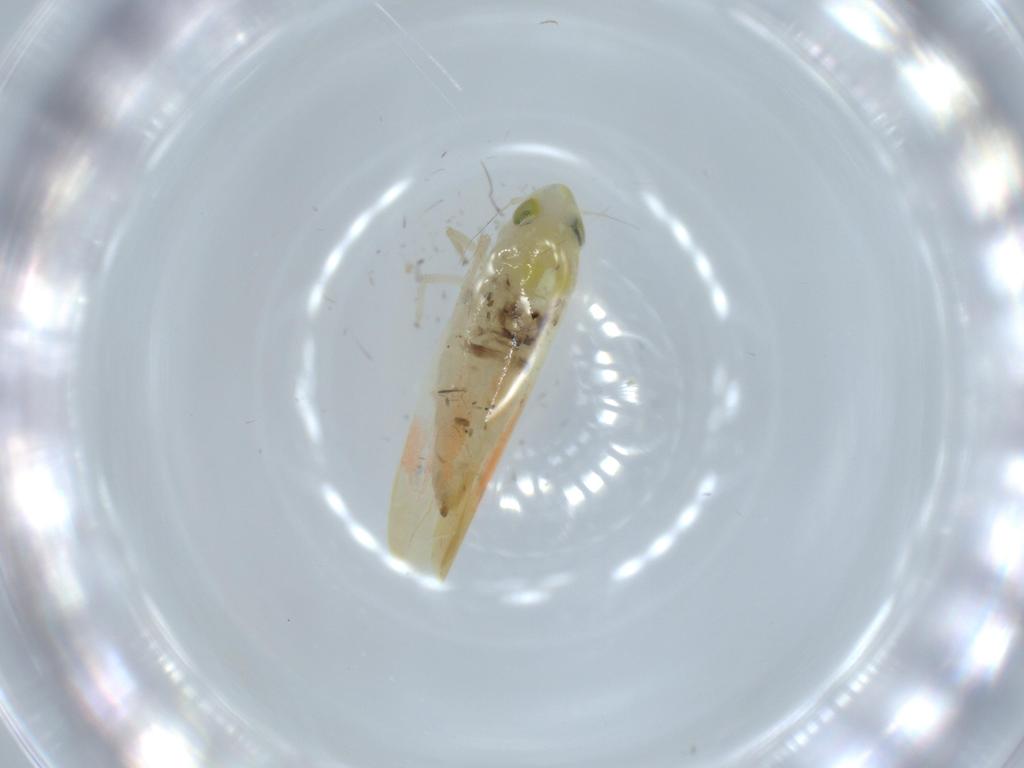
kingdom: Animalia
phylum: Arthropoda
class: Insecta
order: Hemiptera
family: Cicadellidae
